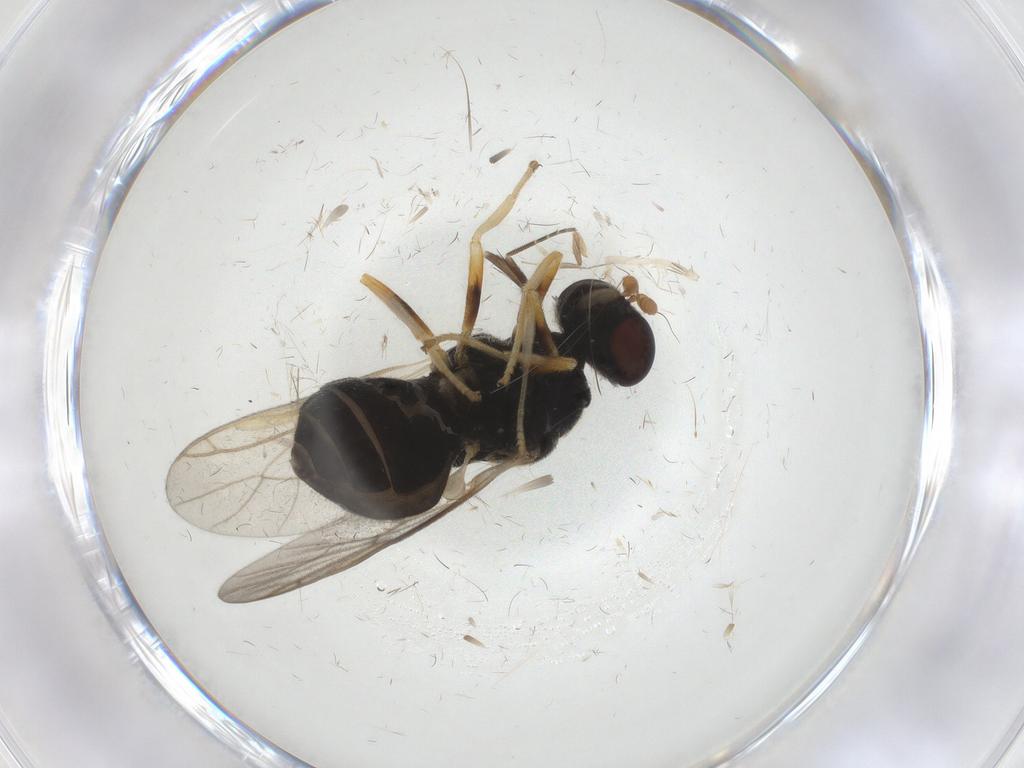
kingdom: Animalia
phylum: Arthropoda
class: Insecta
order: Diptera
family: Stratiomyidae
